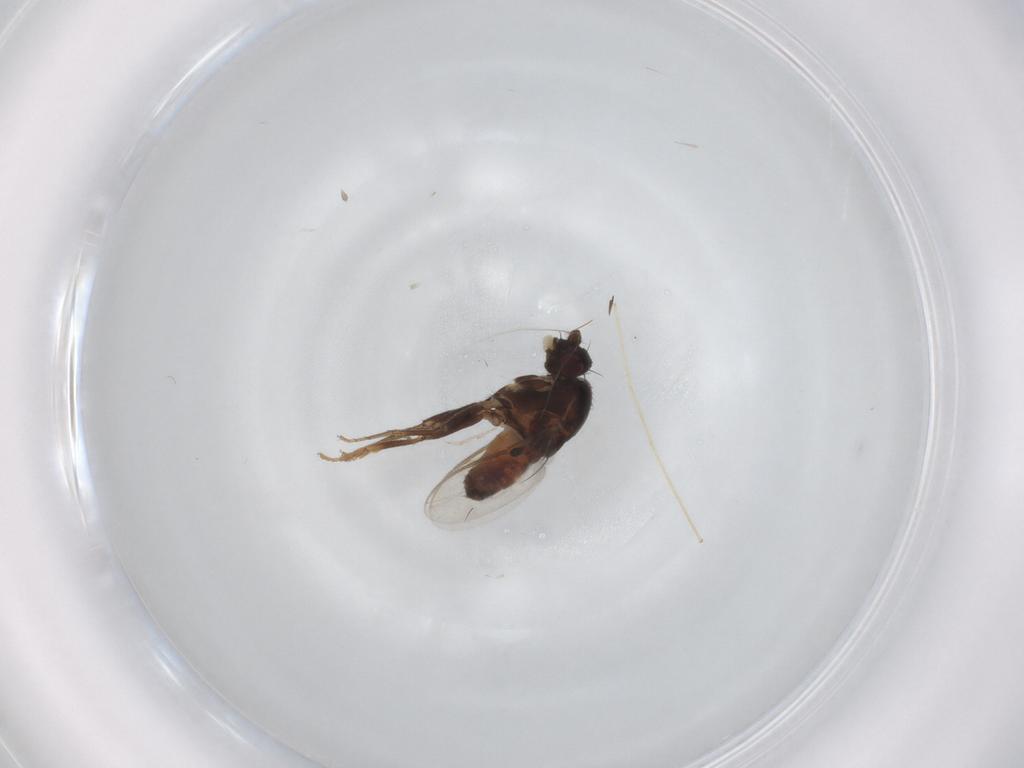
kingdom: Animalia
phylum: Arthropoda
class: Insecta
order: Diptera
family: Sphaeroceridae
